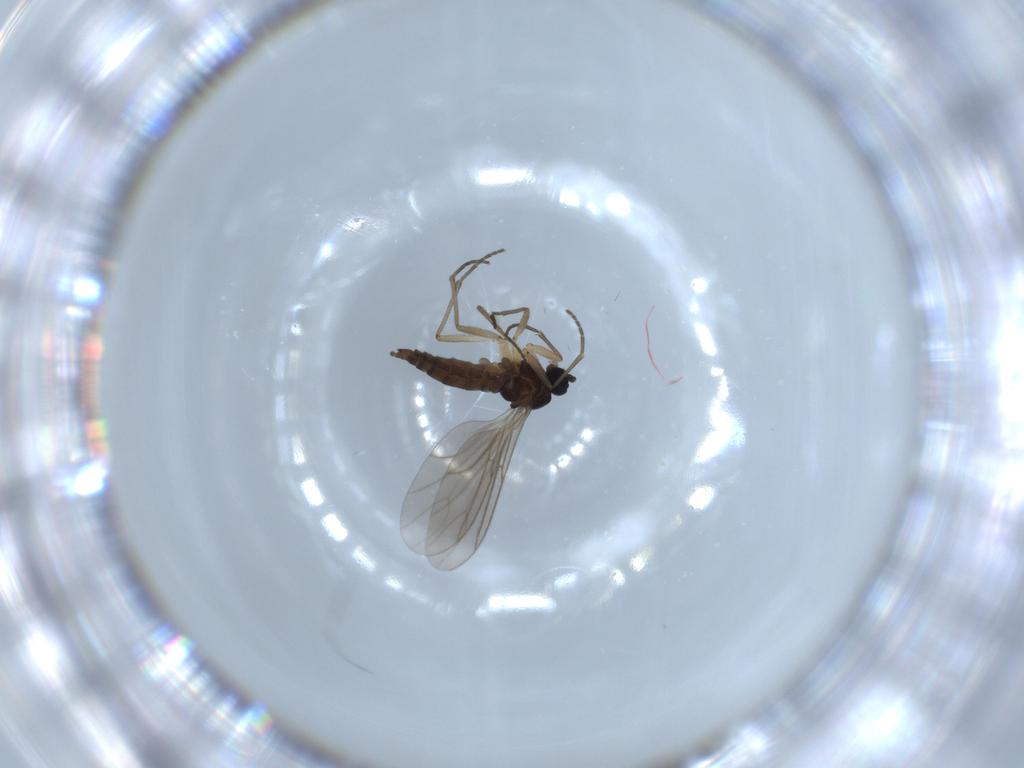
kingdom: Animalia
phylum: Arthropoda
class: Insecta
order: Diptera
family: Sciaridae
